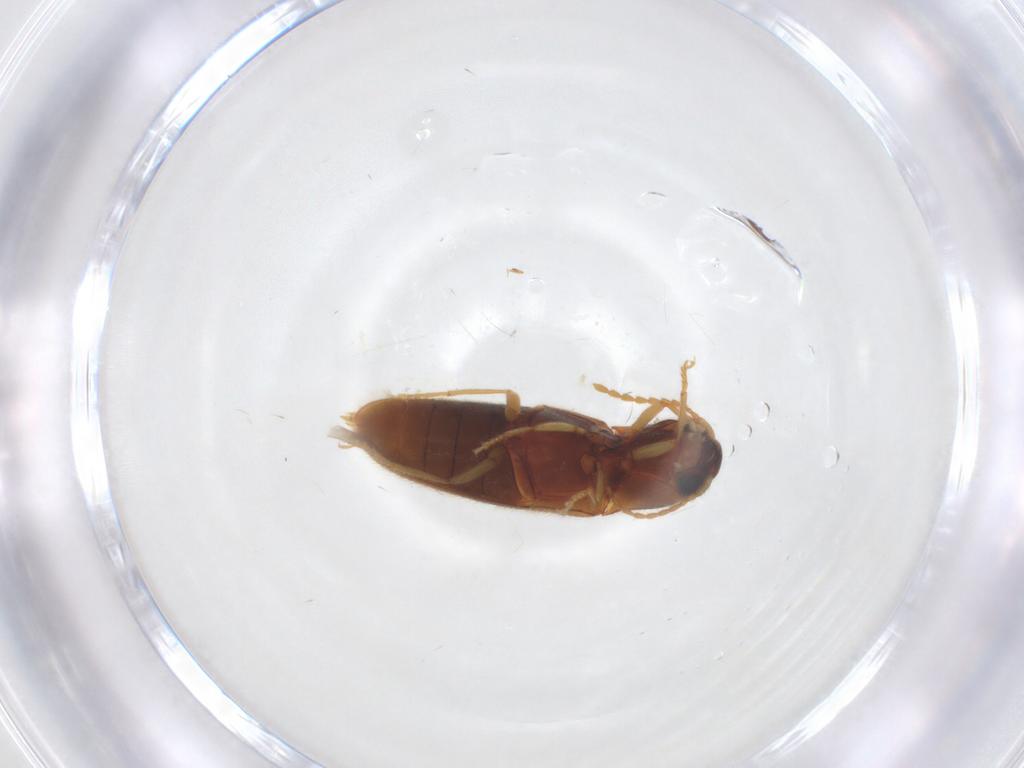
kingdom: Animalia
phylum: Arthropoda
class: Insecta
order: Coleoptera
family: Elateridae
